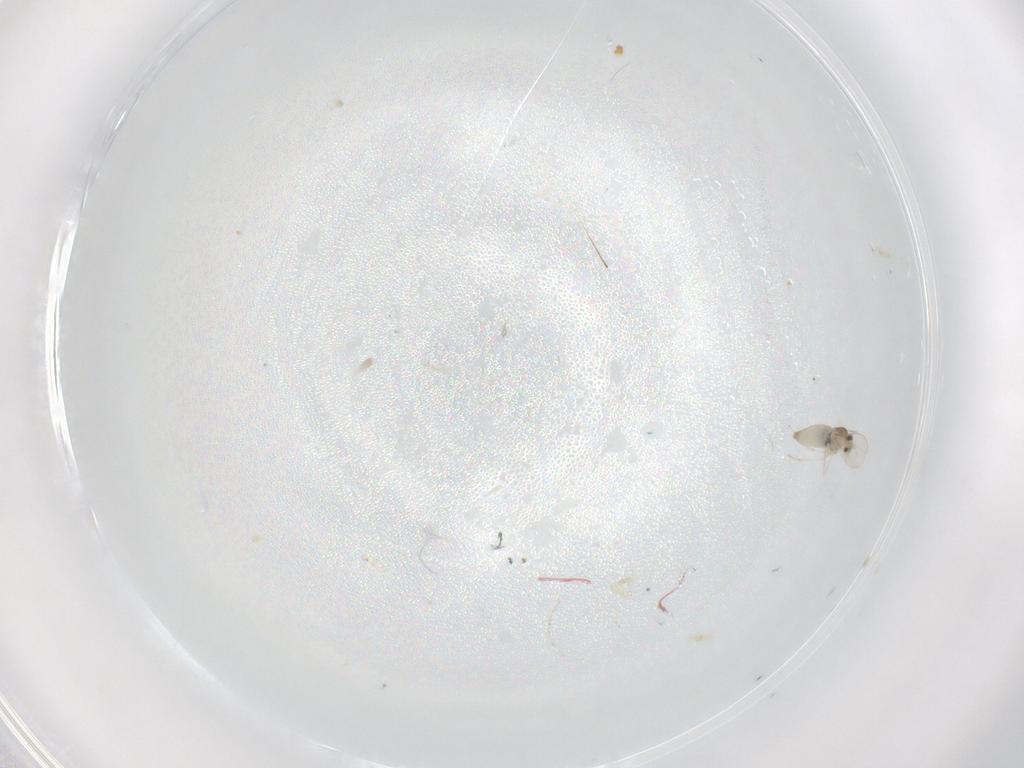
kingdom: Animalia
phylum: Arthropoda
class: Insecta
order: Diptera
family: Cecidomyiidae
